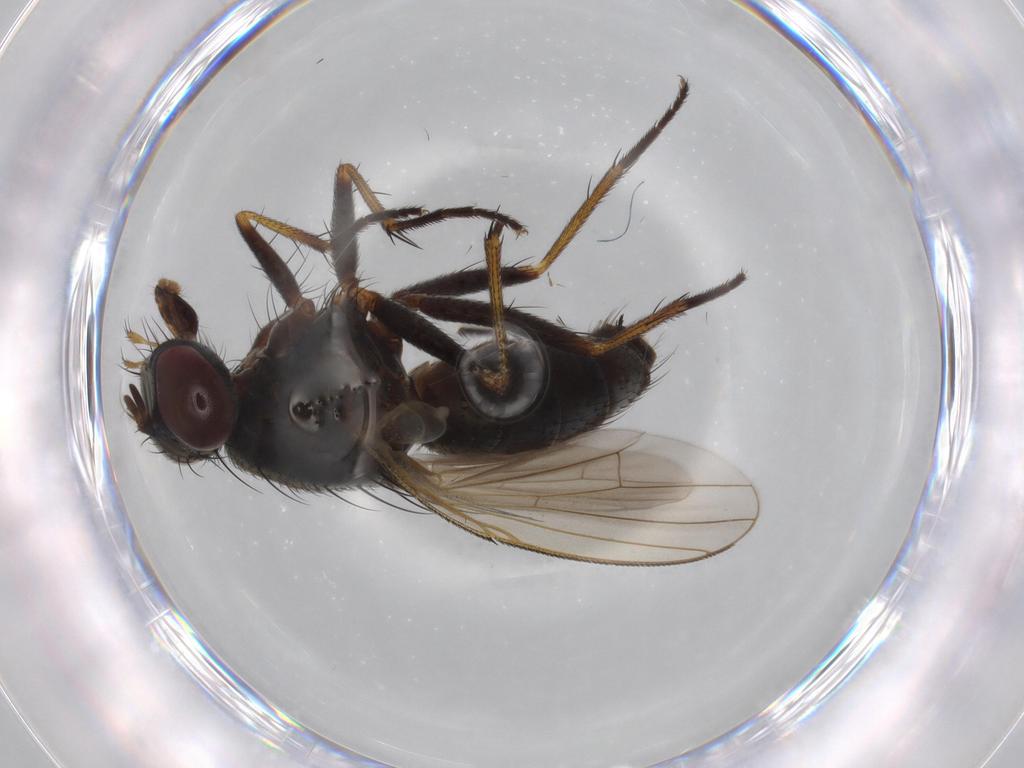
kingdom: Animalia
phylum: Arthropoda
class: Insecta
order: Diptera
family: Muscidae
